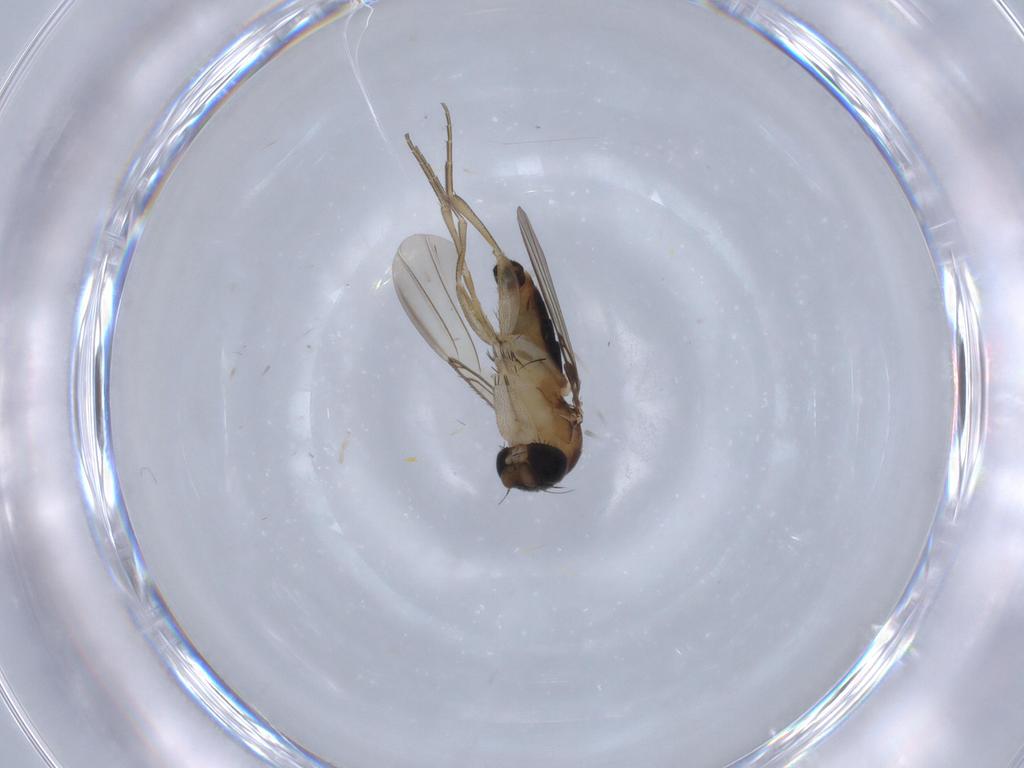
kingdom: Animalia
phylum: Arthropoda
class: Insecta
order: Diptera
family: Phoridae
